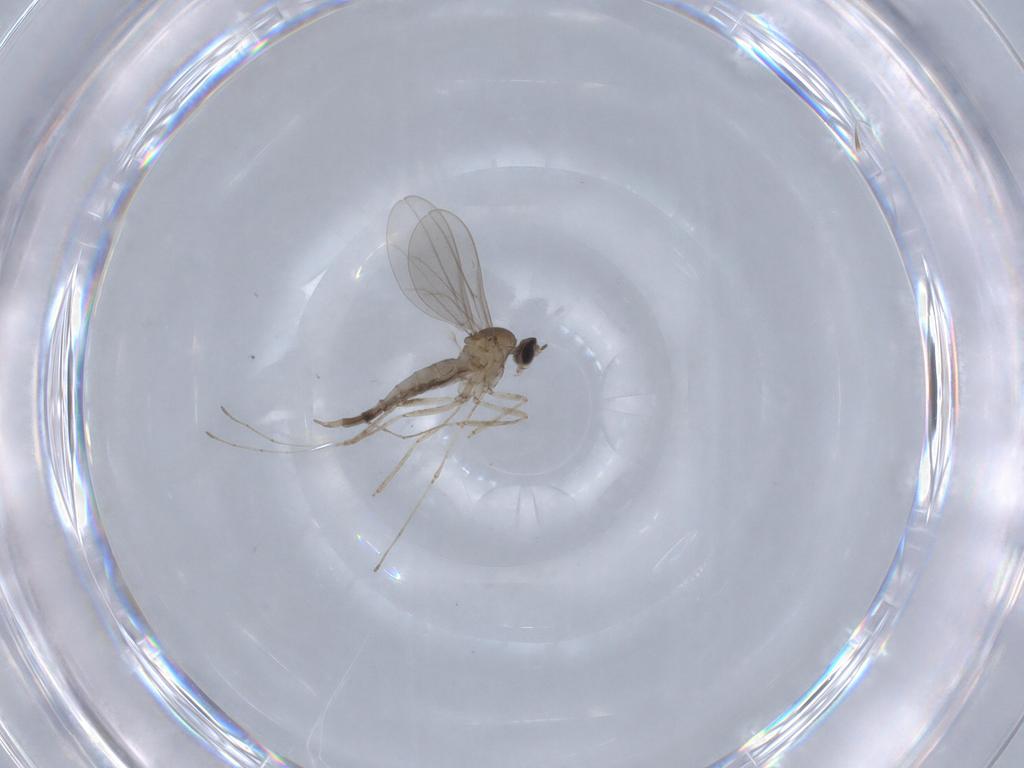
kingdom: Animalia
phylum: Arthropoda
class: Insecta
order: Diptera
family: Cecidomyiidae
